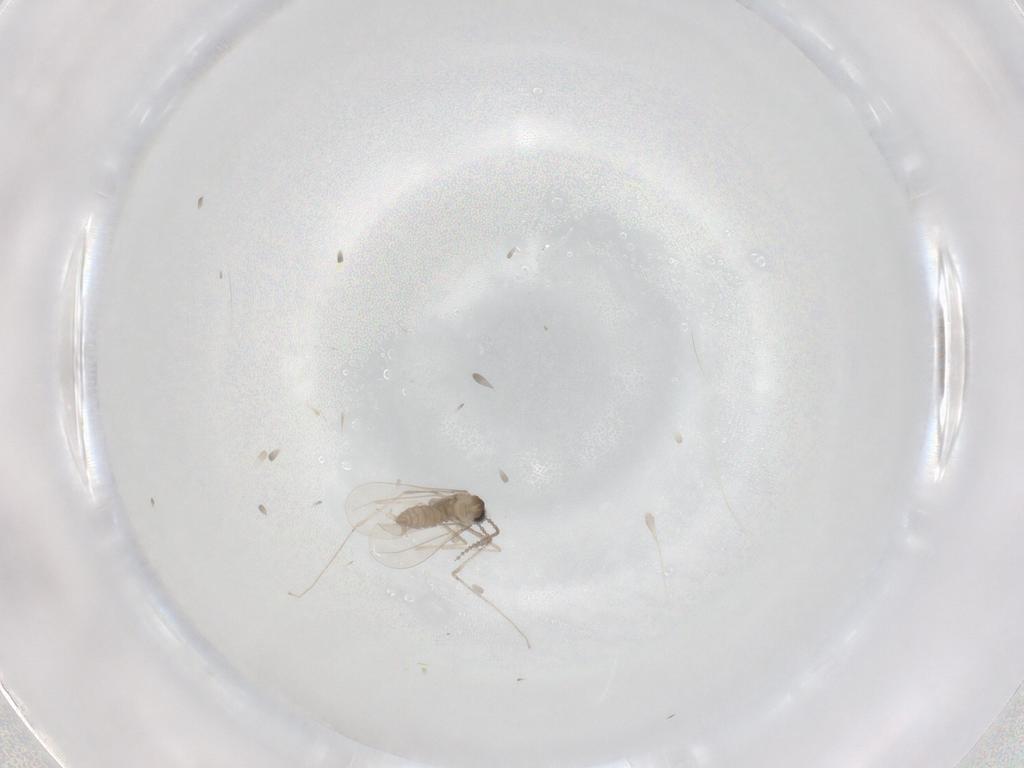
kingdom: Animalia
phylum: Arthropoda
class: Insecta
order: Diptera
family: Cecidomyiidae
